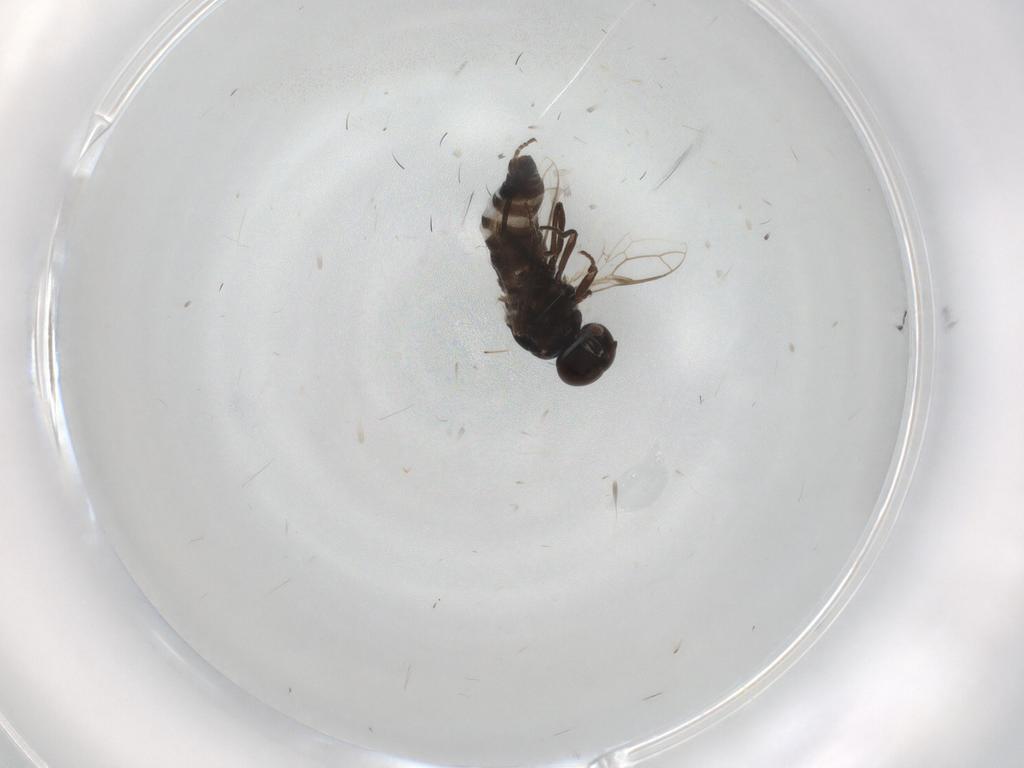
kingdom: Animalia
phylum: Arthropoda
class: Insecta
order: Diptera
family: Scenopinidae
